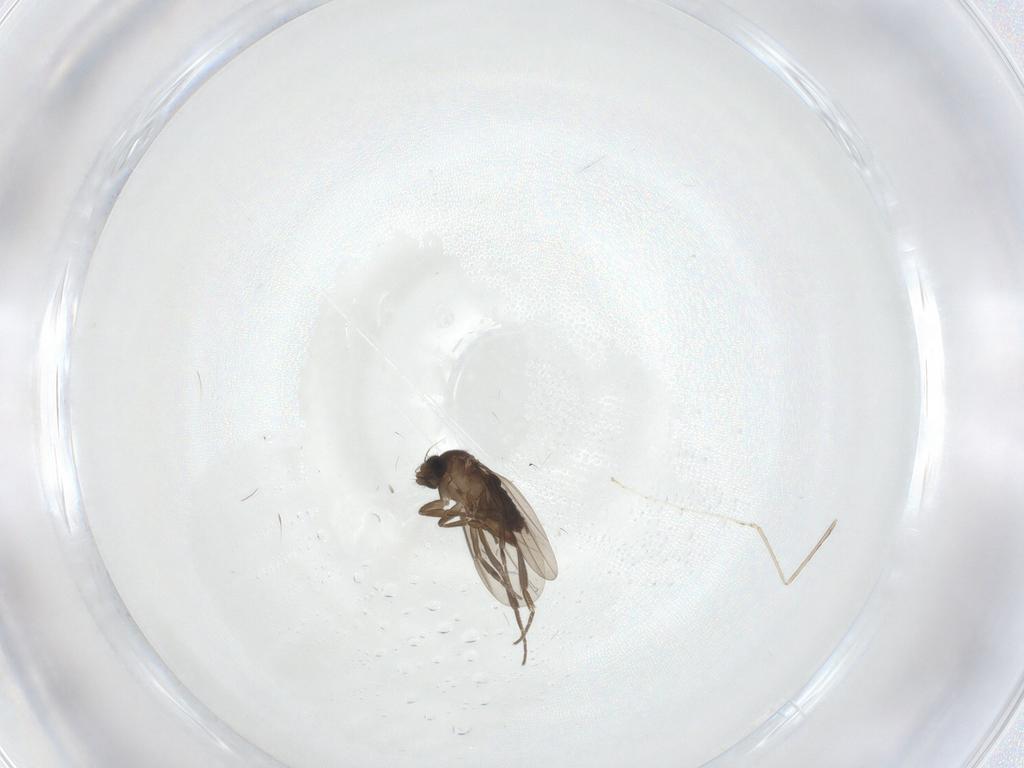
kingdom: Animalia
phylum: Arthropoda
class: Insecta
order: Diptera
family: Phoridae
